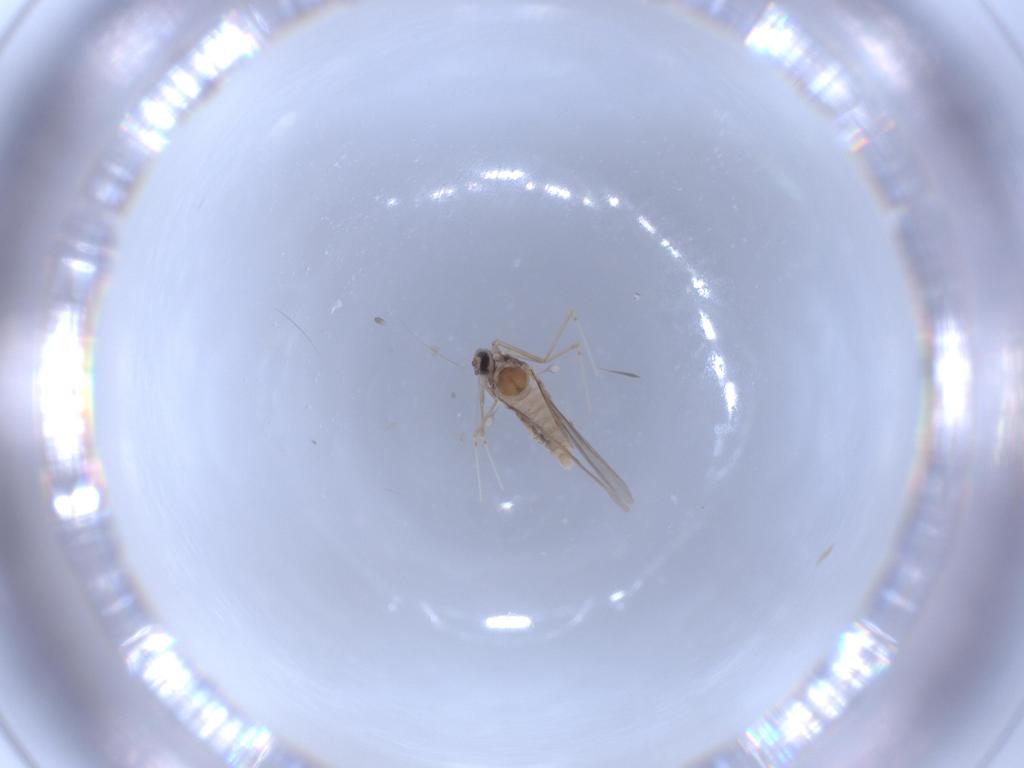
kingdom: Animalia
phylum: Arthropoda
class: Insecta
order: Diptera
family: Cecidomyiidae
